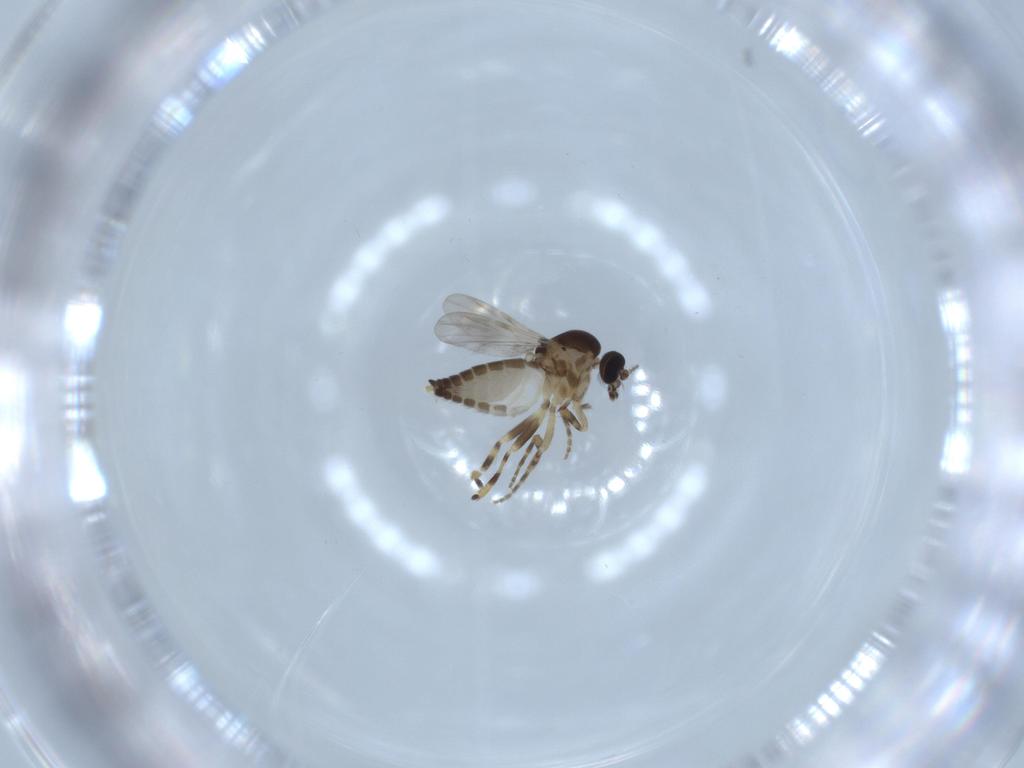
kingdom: Animalia
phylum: Arthropoda
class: Insecta
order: Diptera
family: Ceratopogonidae
